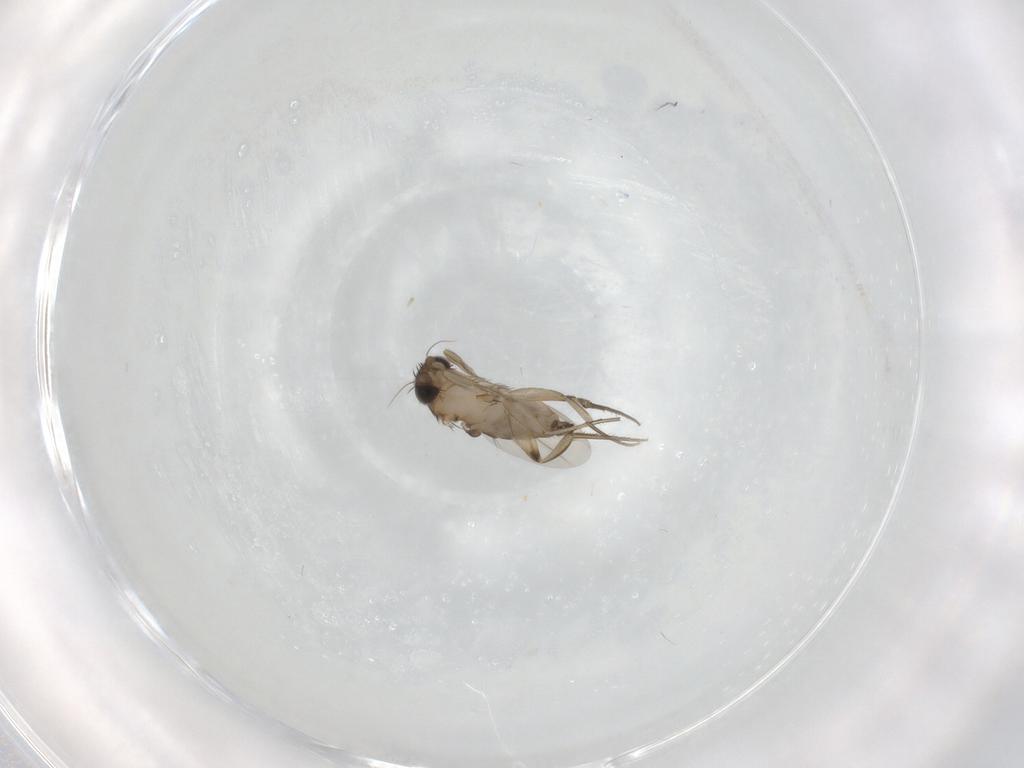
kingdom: Animalia
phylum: Arthropoda
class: Insecta
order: Diptera
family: Phoridae
